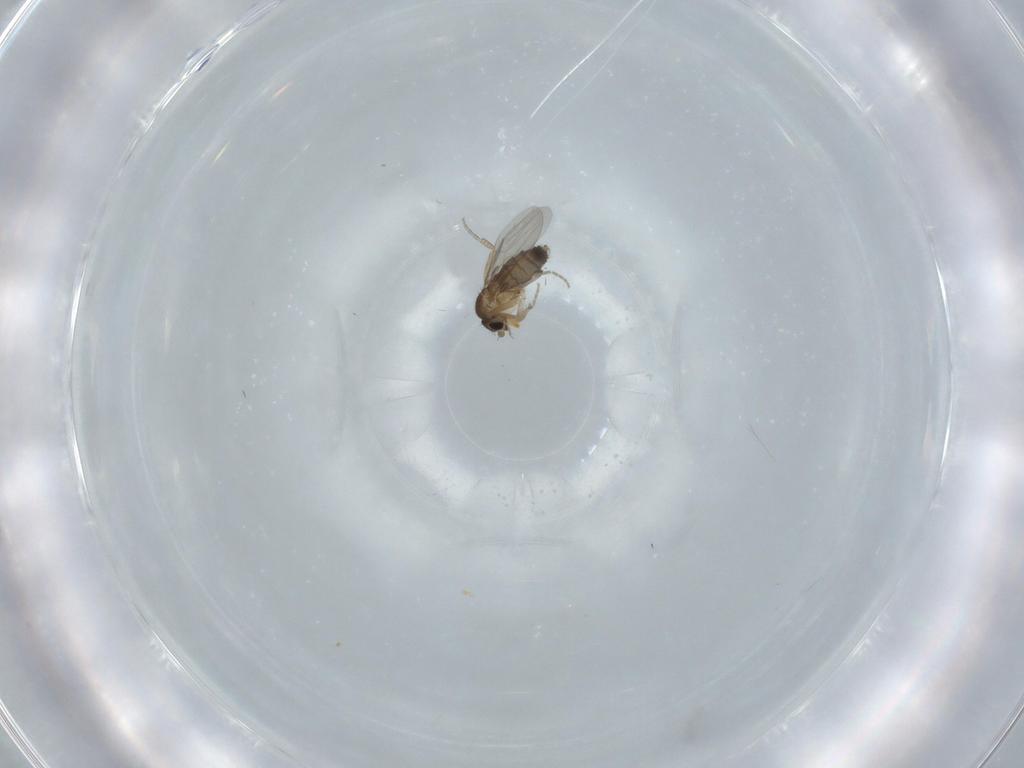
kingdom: Animalia
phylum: Arthropoda
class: Insecta
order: Diptera
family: Phoridae
